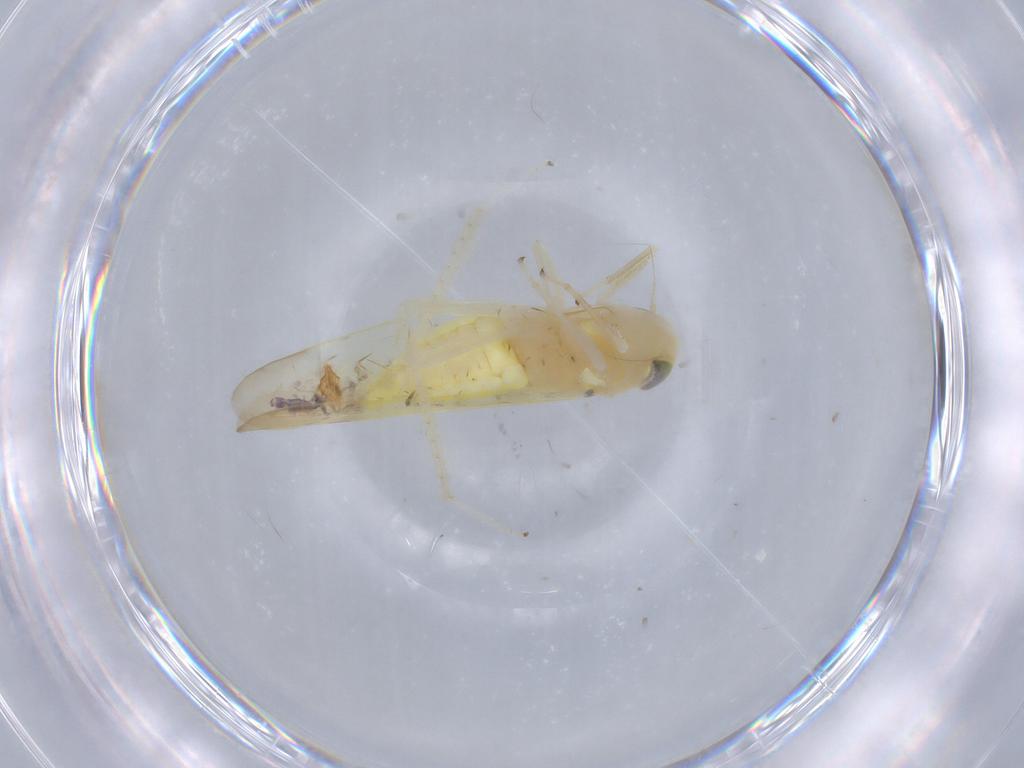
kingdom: Animalia
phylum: Arthropoda
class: Insecta
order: Hemiptera
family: Cicadellidae
